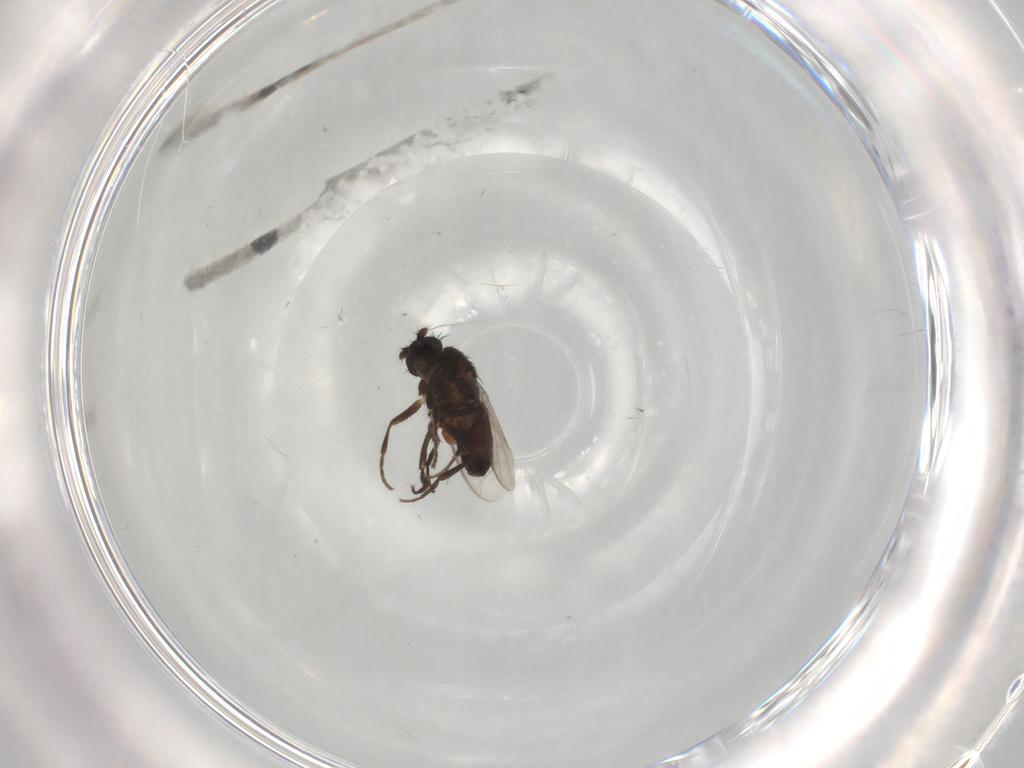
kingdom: Animalia
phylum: Arthropoda
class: Insecta
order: Diptera
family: Sphaeroceridae
